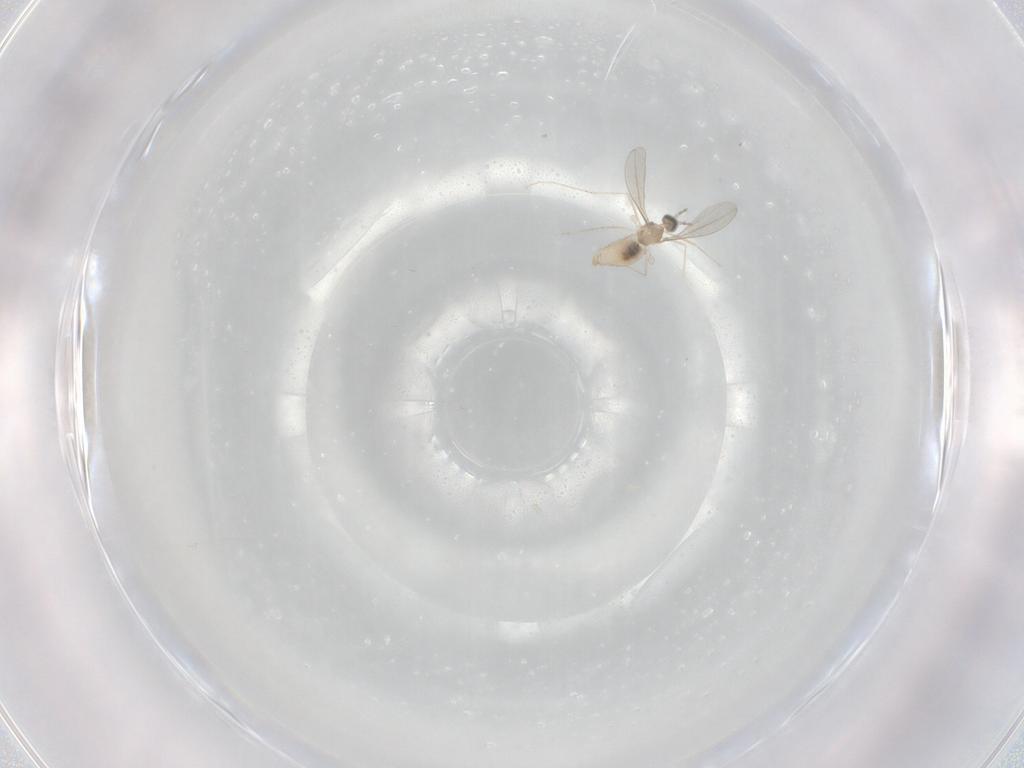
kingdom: Animalia
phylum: Arthropoda
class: Insecta
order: Diptera
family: Cecidomyiidae
